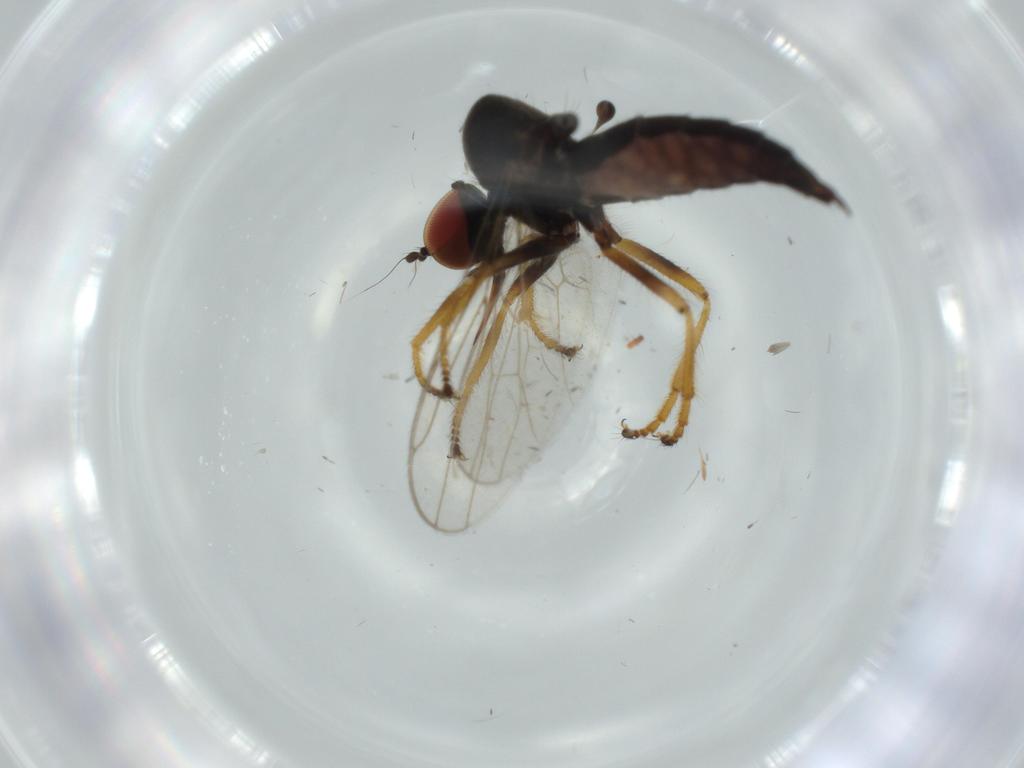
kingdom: Animalia
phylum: Arthropoda
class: Insecta
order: Diptera
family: Cecidomyiidae
